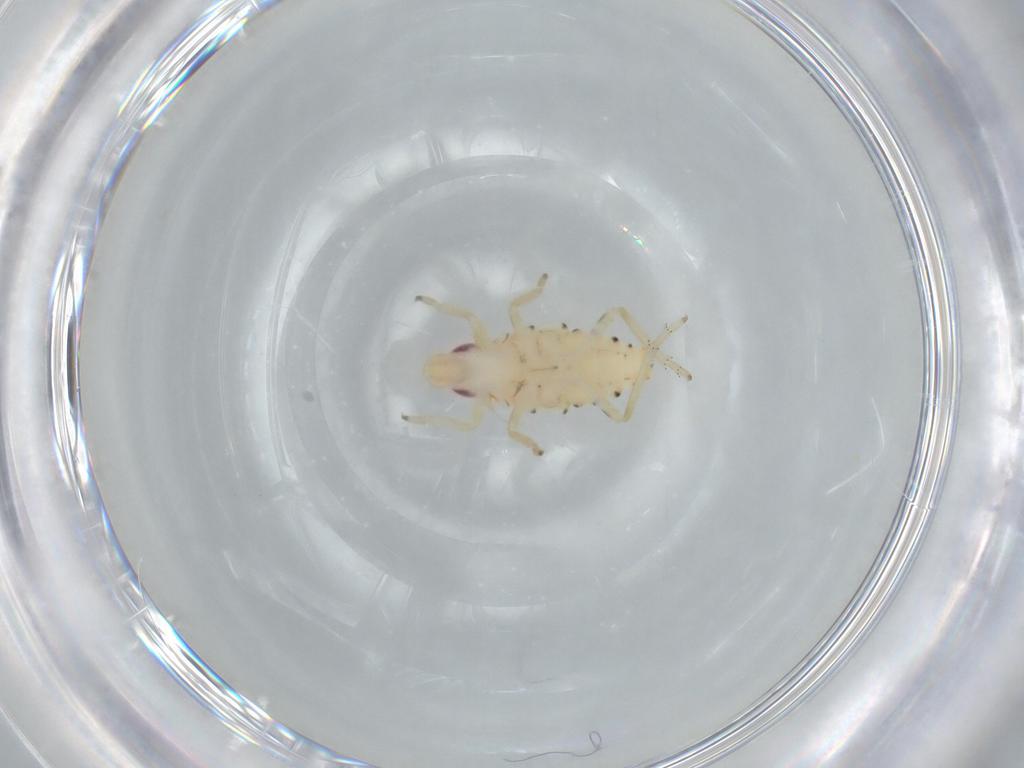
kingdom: Animalia
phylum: Arthropoda
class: Insecta
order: Hemiptera
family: Tropiduchidae
